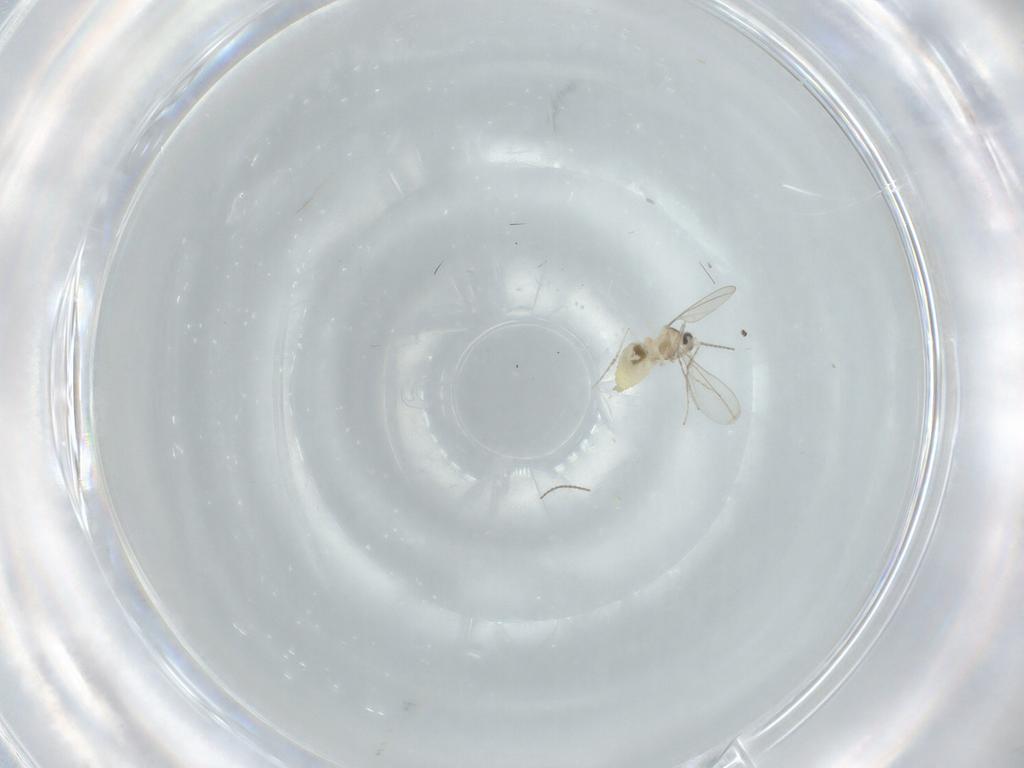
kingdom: Animalia
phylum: Arthropoda
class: Insecta
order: Diptera
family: Cecidomyiidae
